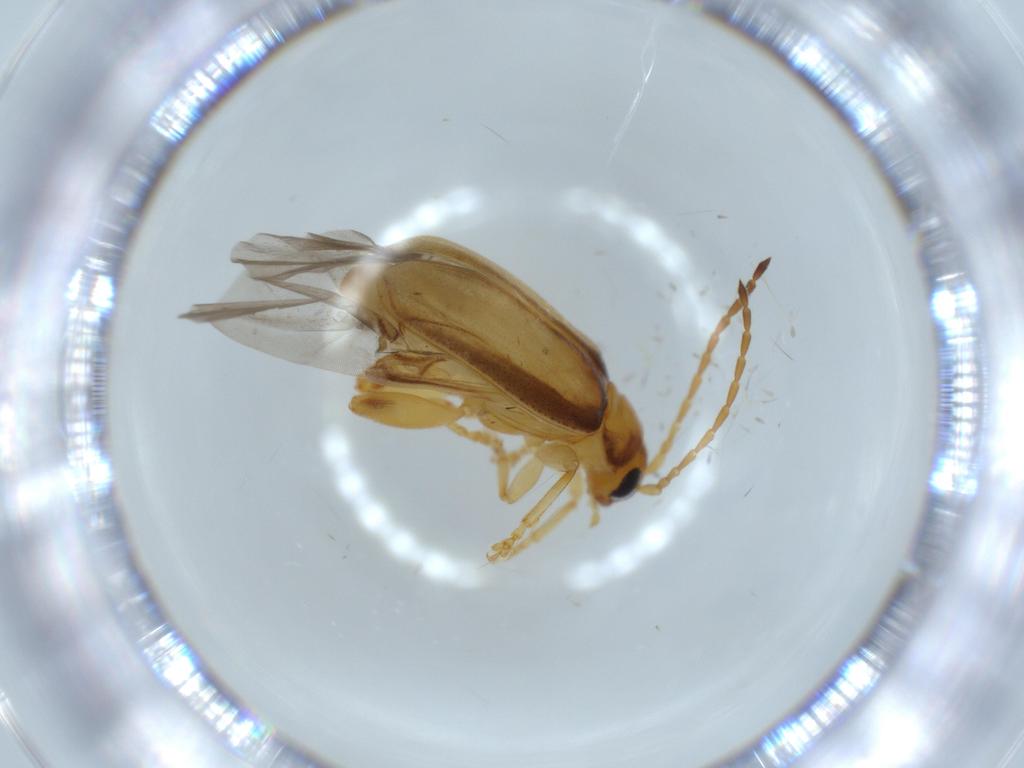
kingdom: Animalia
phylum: Arthropoda
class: Insecta
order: Coleoptera
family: Chrysomelidae
